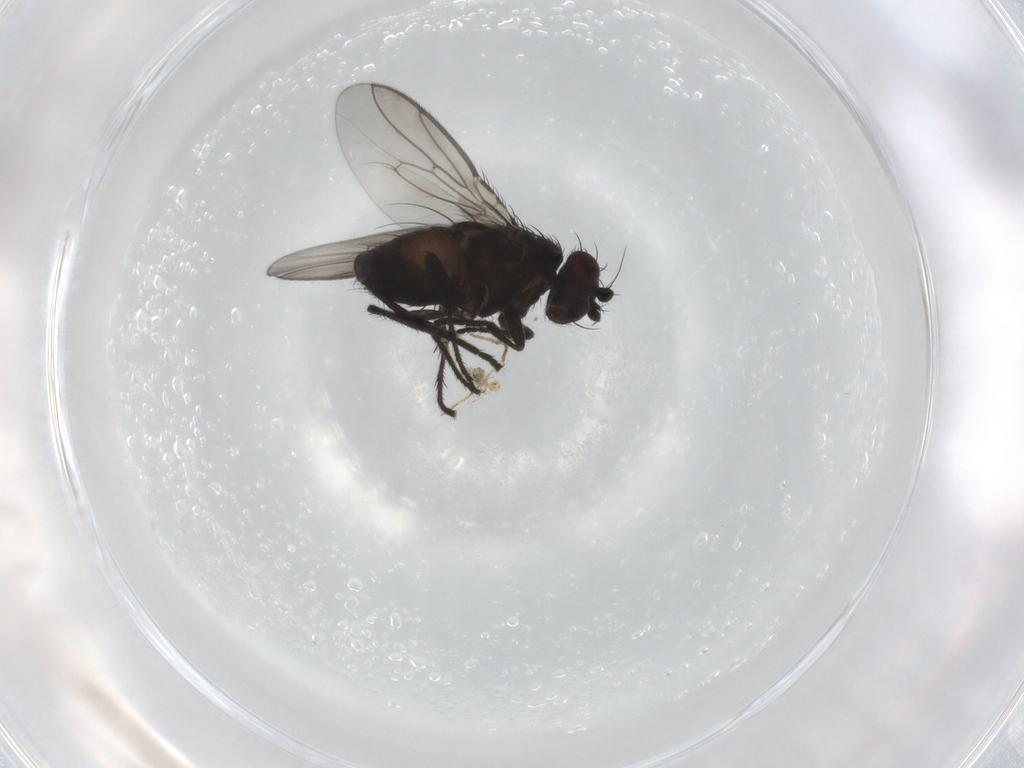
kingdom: Animalia
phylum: Arthropoda
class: Insecta
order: Diptera
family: Sphaeroceridae
